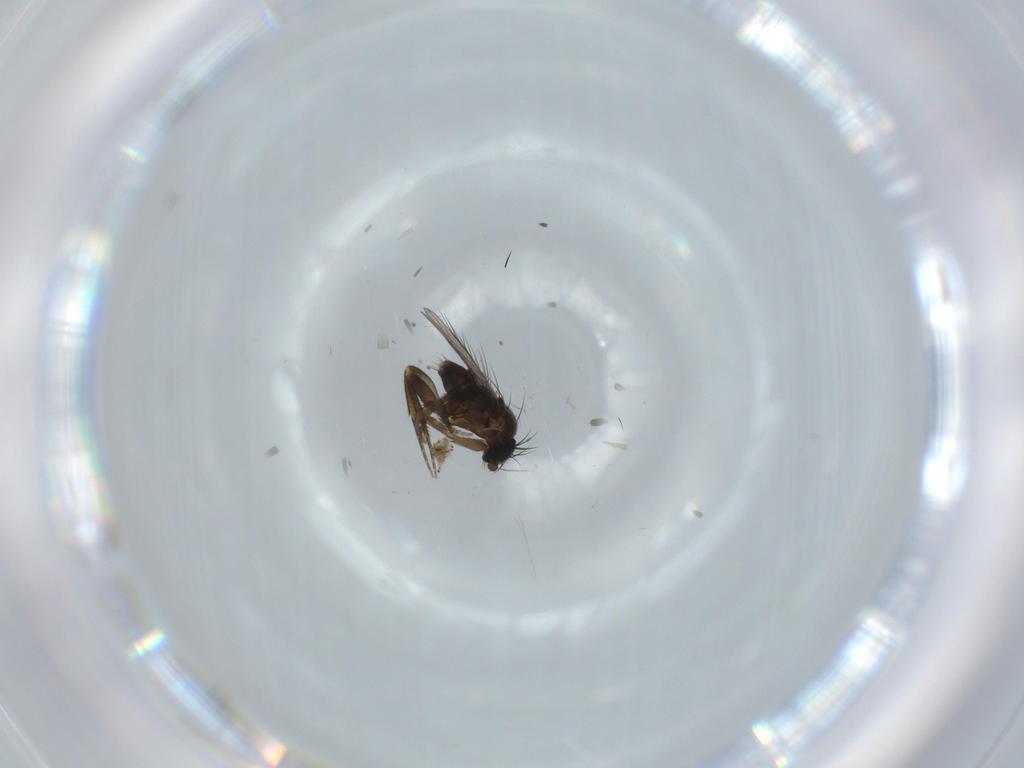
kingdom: Animalia
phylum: Arthropoda
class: Insecta
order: Diptera
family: Phoridae
